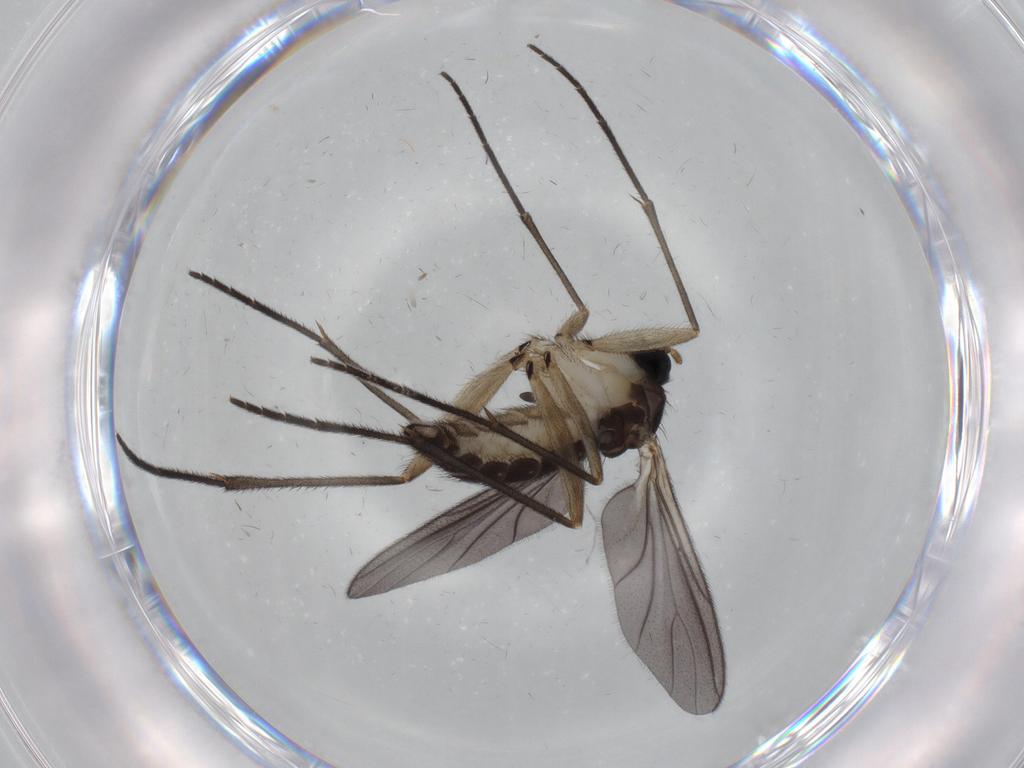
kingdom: Animalia
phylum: Arthropoda
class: Insecta
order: Diptera
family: Sciaridae
